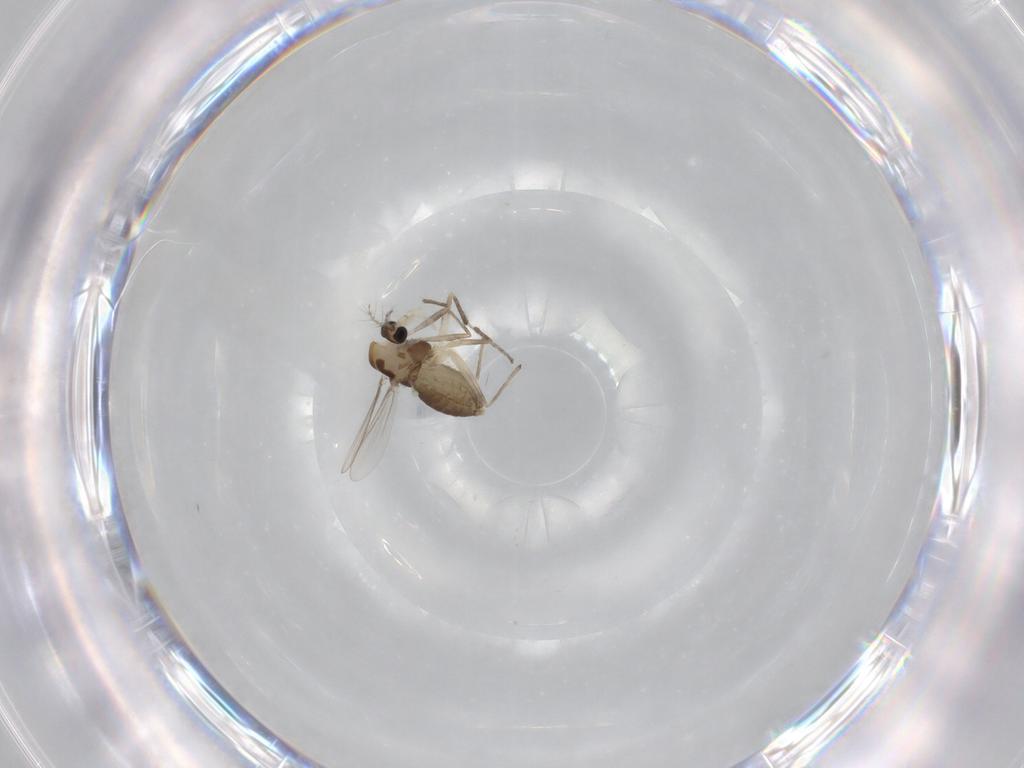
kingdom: Animalia
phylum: Arthropoda
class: Insecta
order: Diptera
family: Chironomidae
